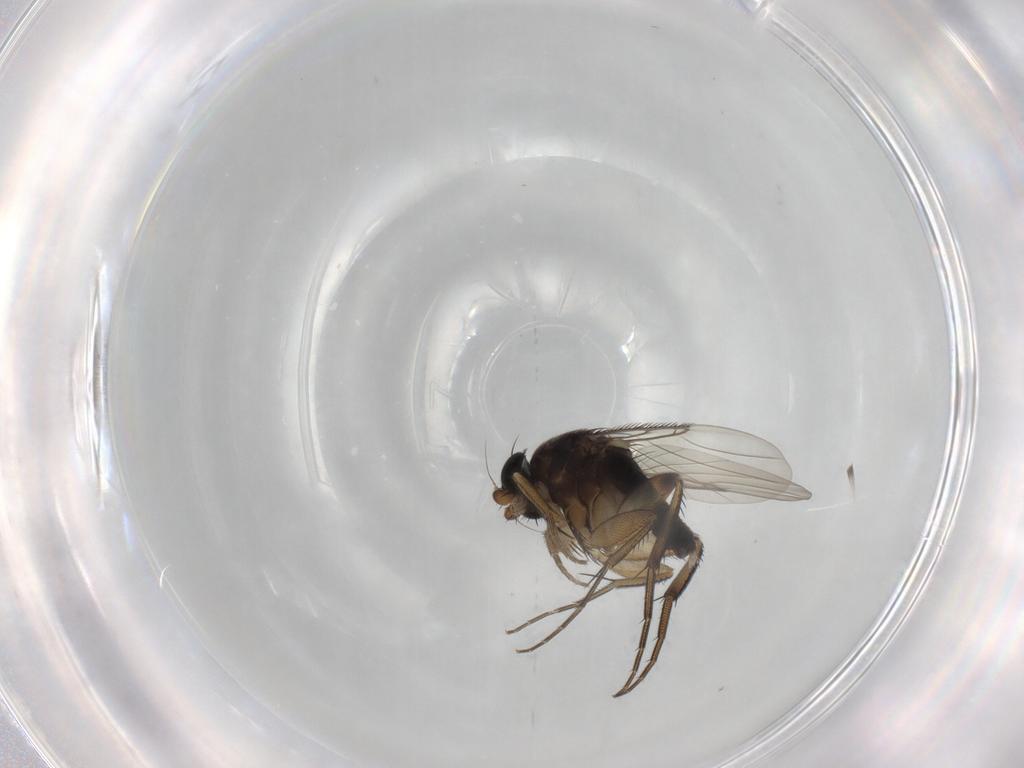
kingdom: Animalia
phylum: Arthropoda
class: Insecta
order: Diptera
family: Phoridae
